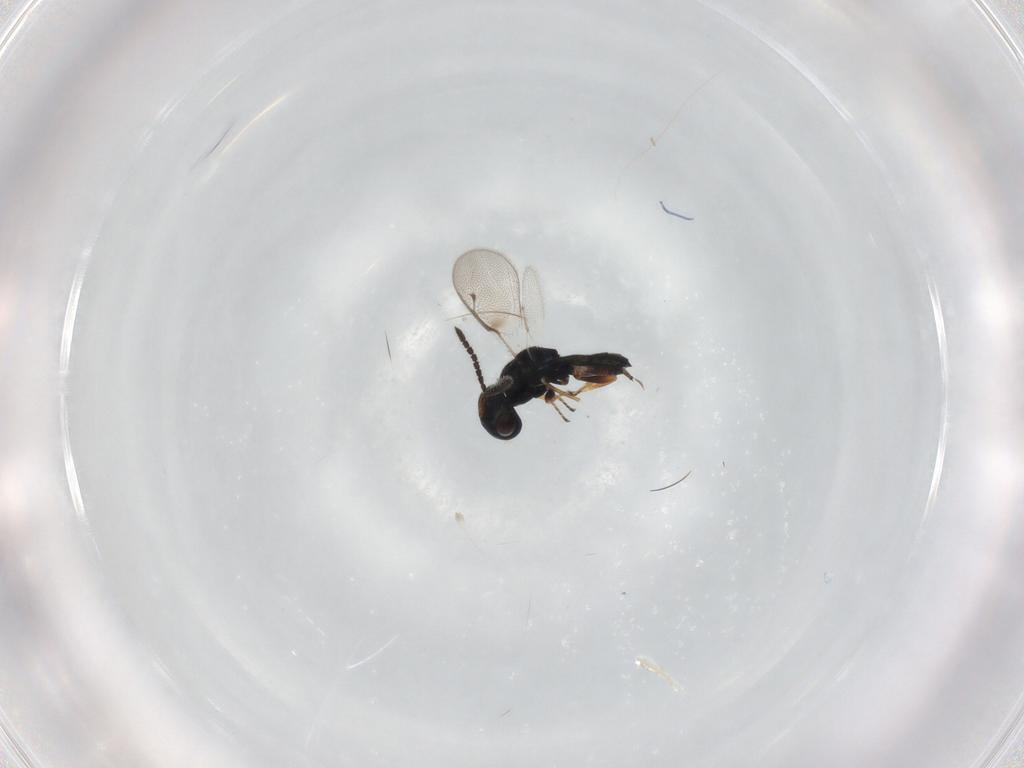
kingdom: Animalia
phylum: Arthropoda
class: Insecta
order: Hymenoptera
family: Pteromalidae
